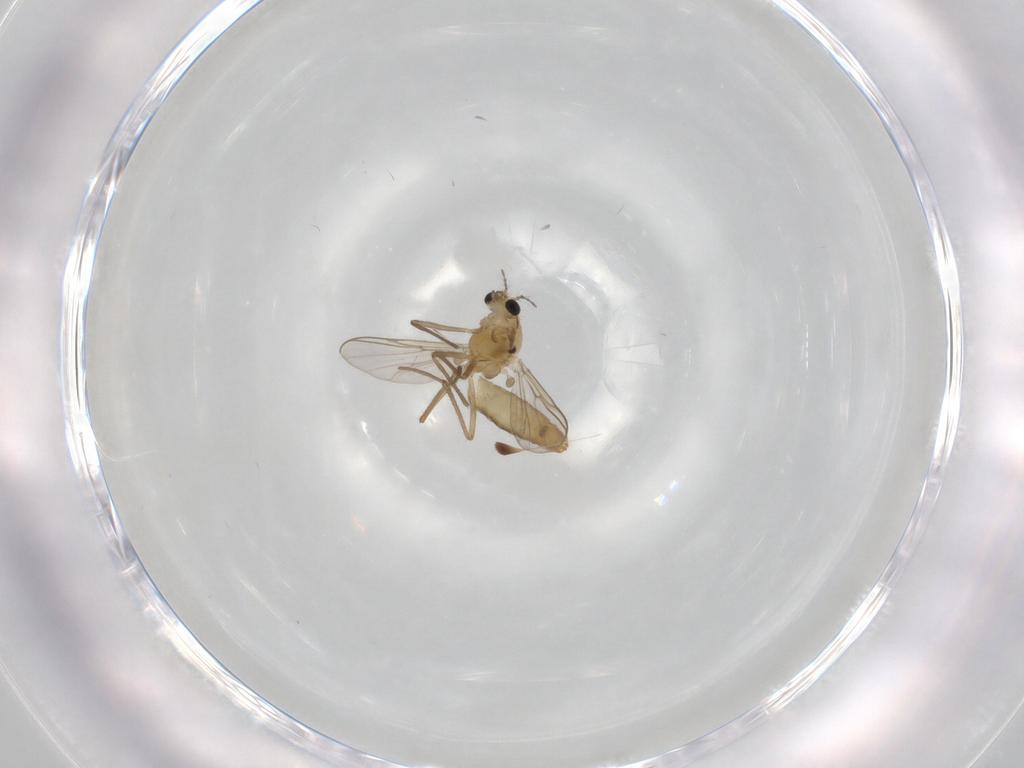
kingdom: Animalia
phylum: Arthropoda
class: Insecta
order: Diptera
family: Chironomidae
